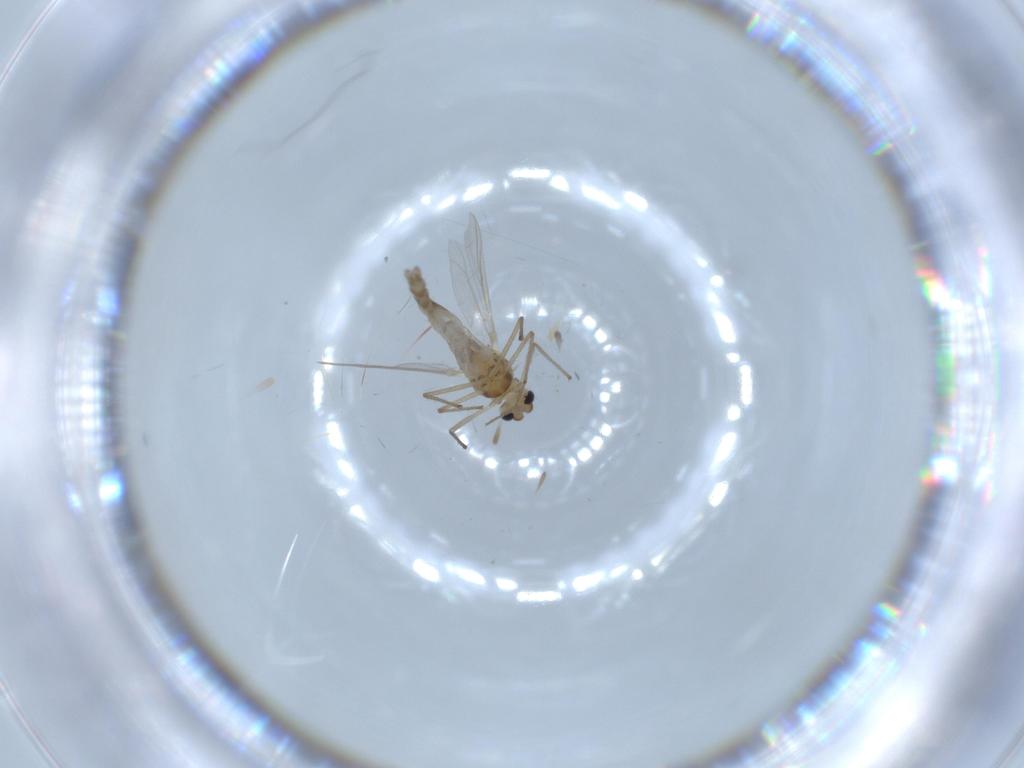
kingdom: Animalia
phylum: Arthropoda
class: Insecta
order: Diptera
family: Chironomidae
